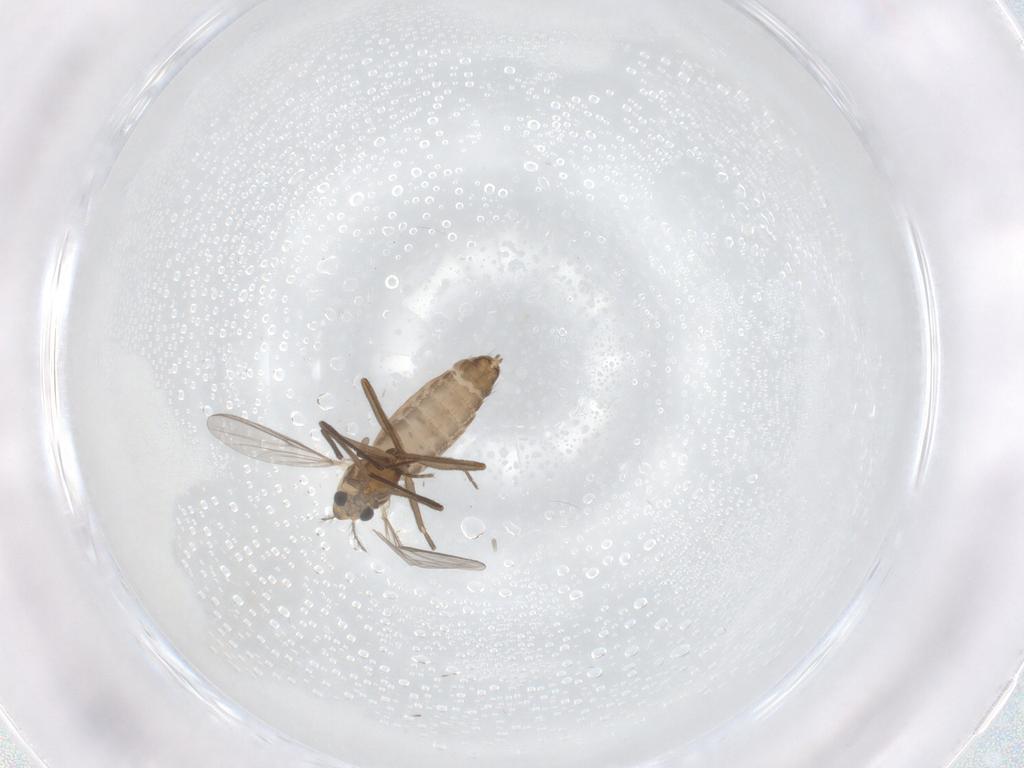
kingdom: Animalia
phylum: Arthropoda
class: Insecta
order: Diptera
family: Chironomidae
